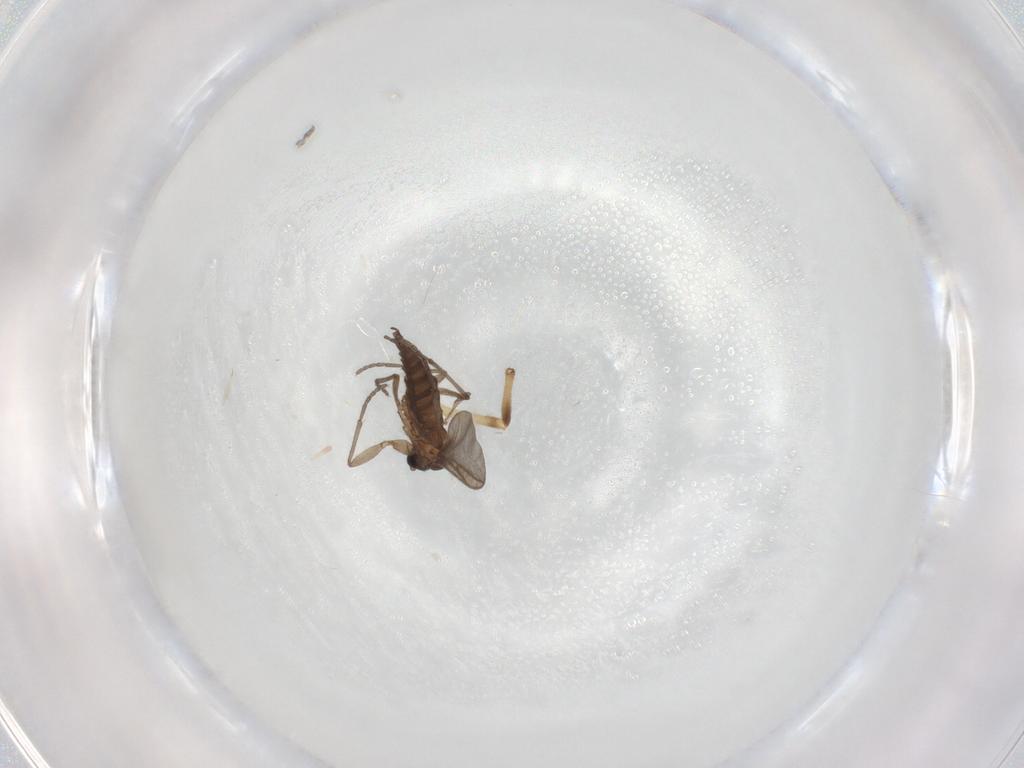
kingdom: Animalia
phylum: Arthropoda
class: Insecta
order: Diptera
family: Sciaridae
